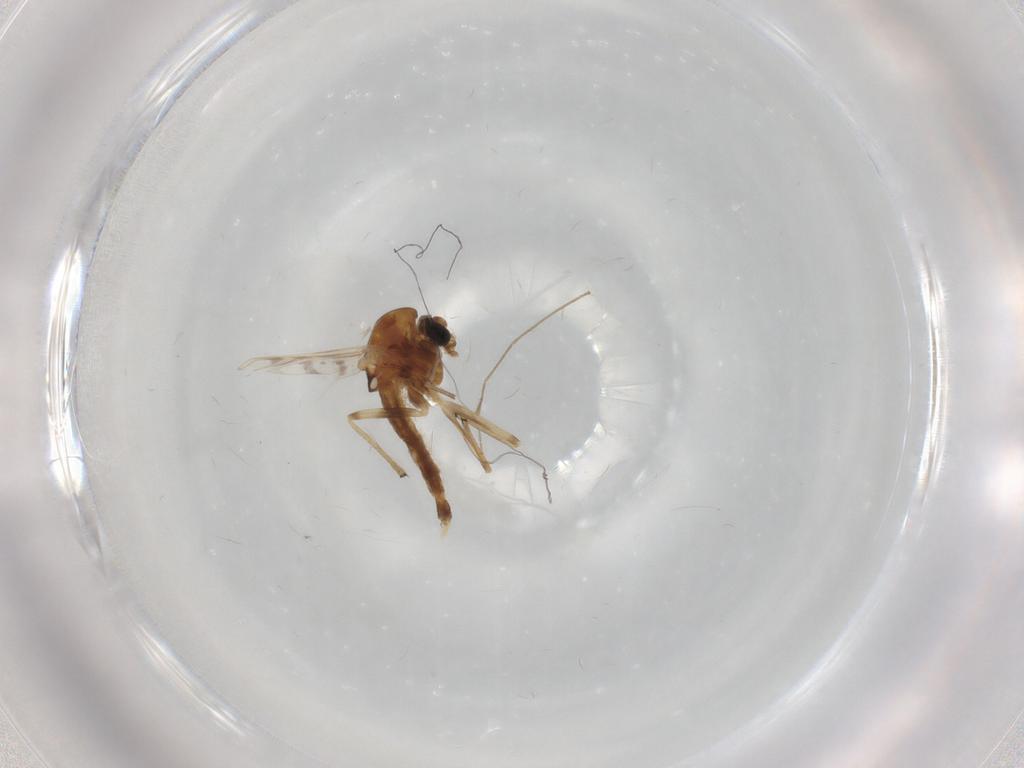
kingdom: Animalia
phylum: Arthropoda
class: Insecta
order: Diptera
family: Chironomidae
